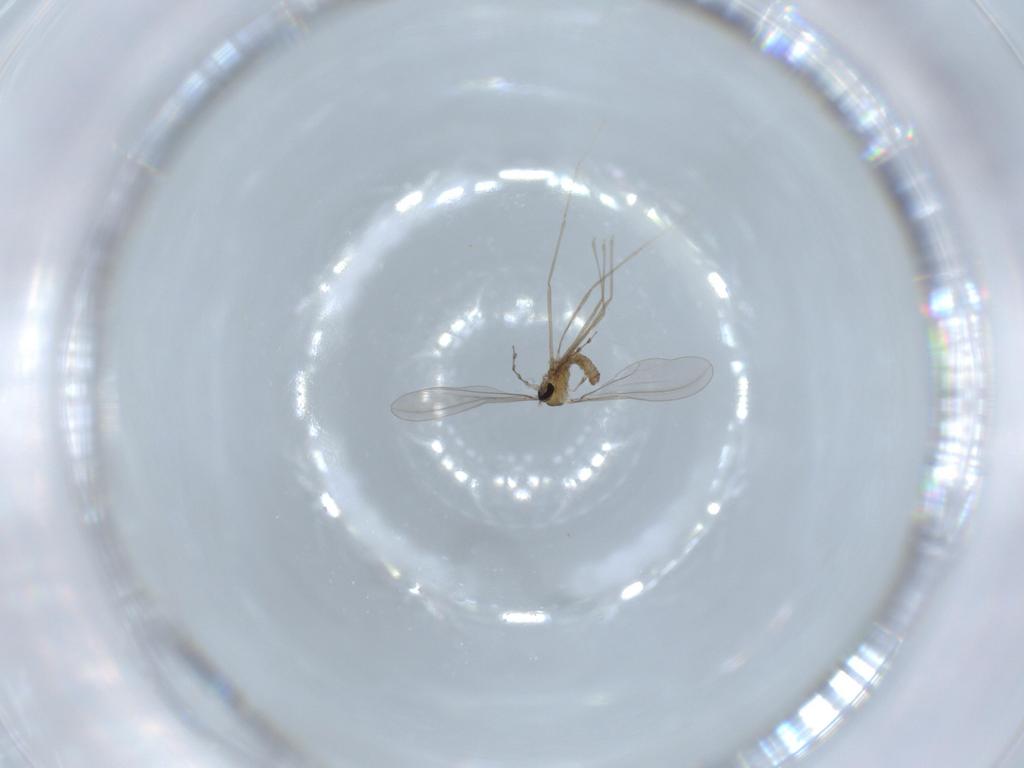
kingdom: Animalia
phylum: Arthropoda
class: Insecta
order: Diptera
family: Cecidomyiidae
